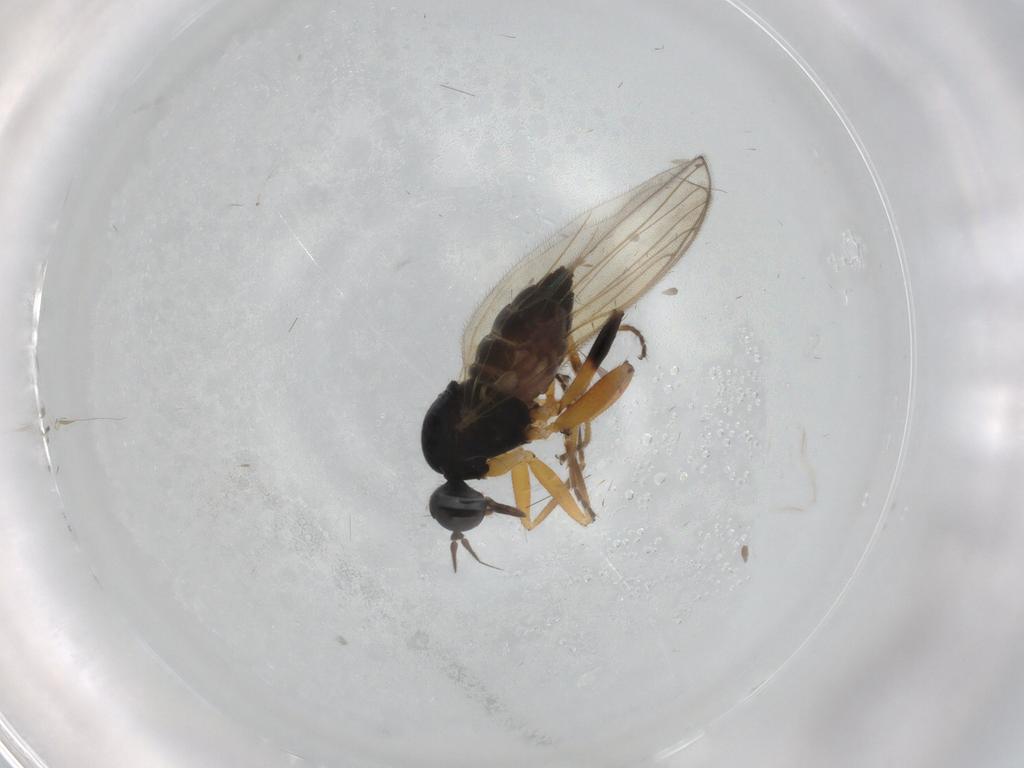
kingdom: Animalia
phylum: Arthropoda
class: Insecta
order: Diptera
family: Hybotidae
